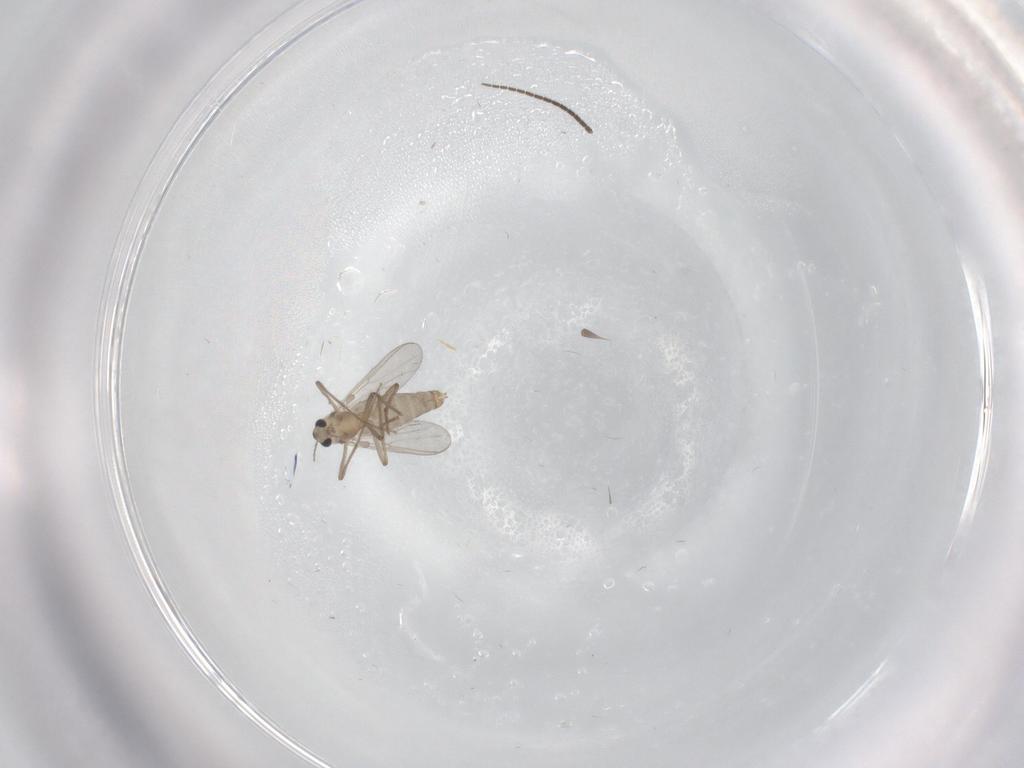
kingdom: Animalia
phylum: Arthropoda
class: Insecta
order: Diptera
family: Chironomidae
